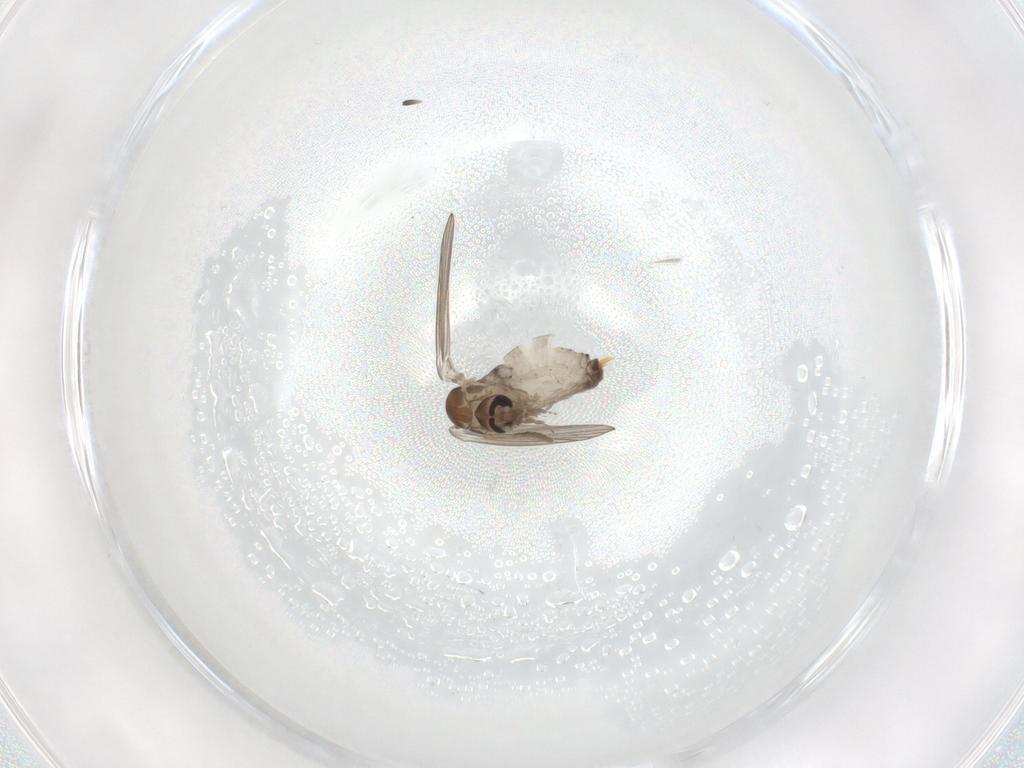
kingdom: Animalia
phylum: Arthropoda
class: Insecta
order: Diptera
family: Psychodidae
